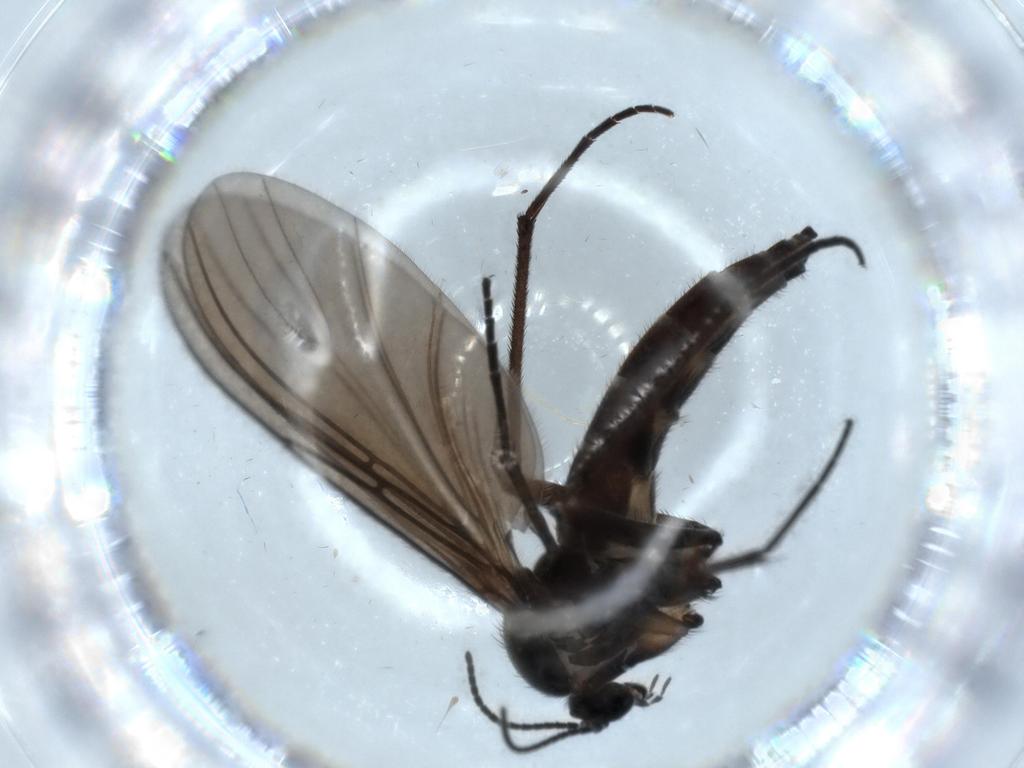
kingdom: Animalia
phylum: Arthropoda
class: Insecta
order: Diptera
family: Sciaridae
